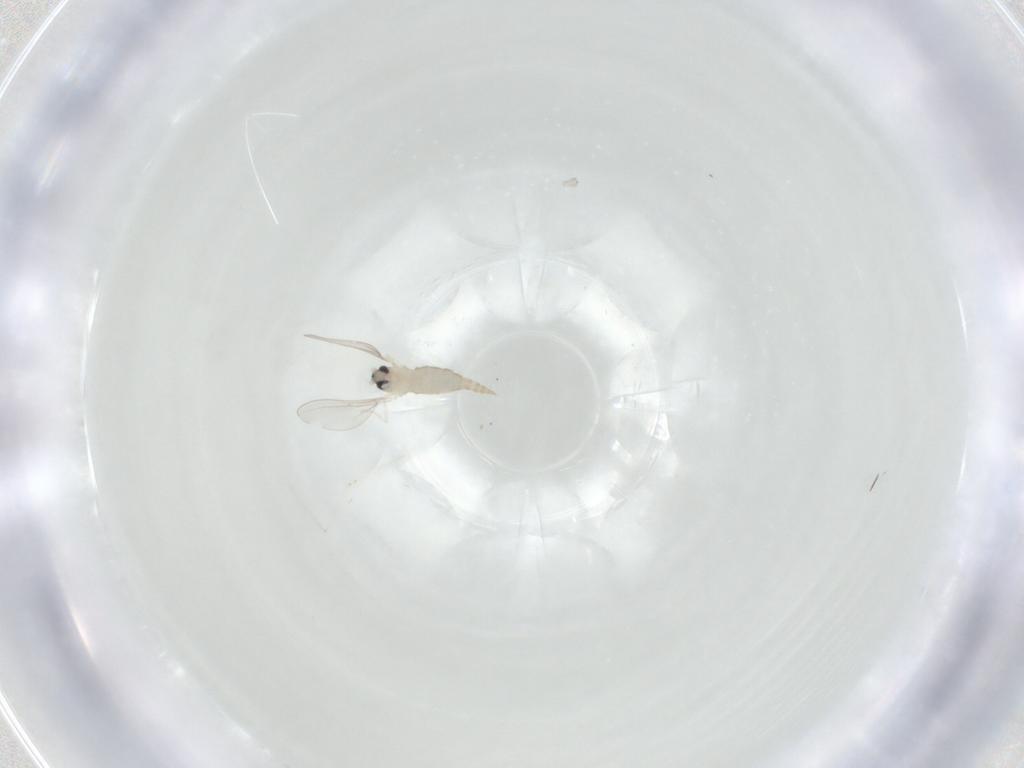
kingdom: Animalia
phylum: Arthropoda
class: Insecta
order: Diptera
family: Cecidomyiidae
